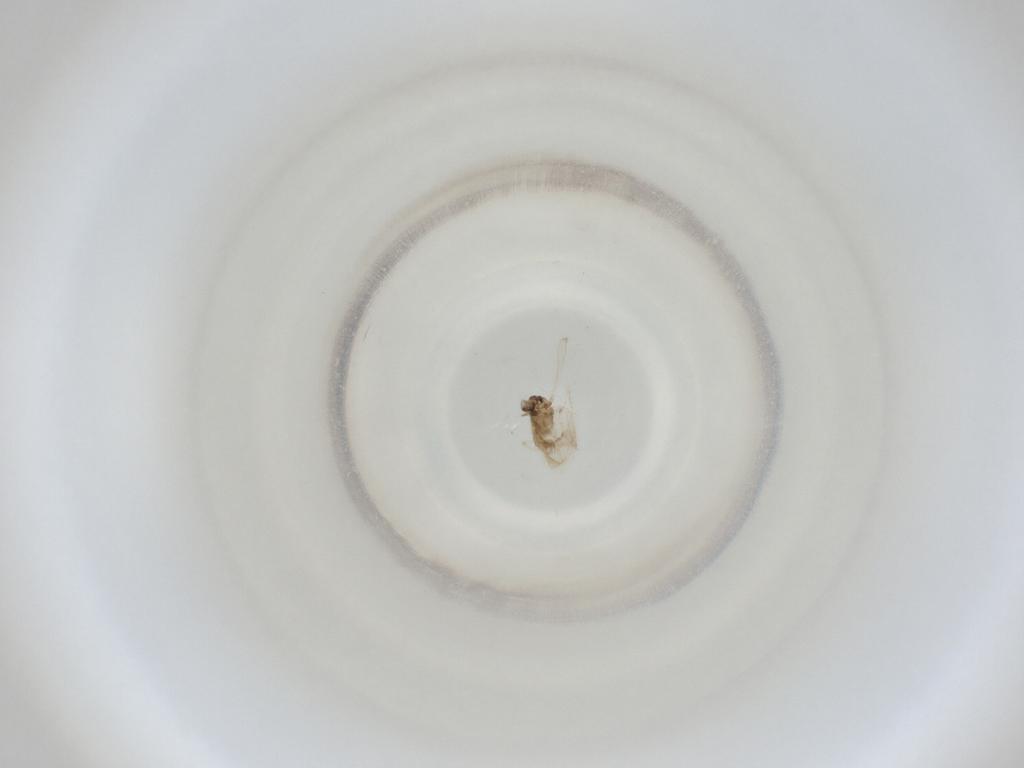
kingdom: Animalia
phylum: Arthropoda
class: Insecta
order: Diptera
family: Cecidomyiidae
